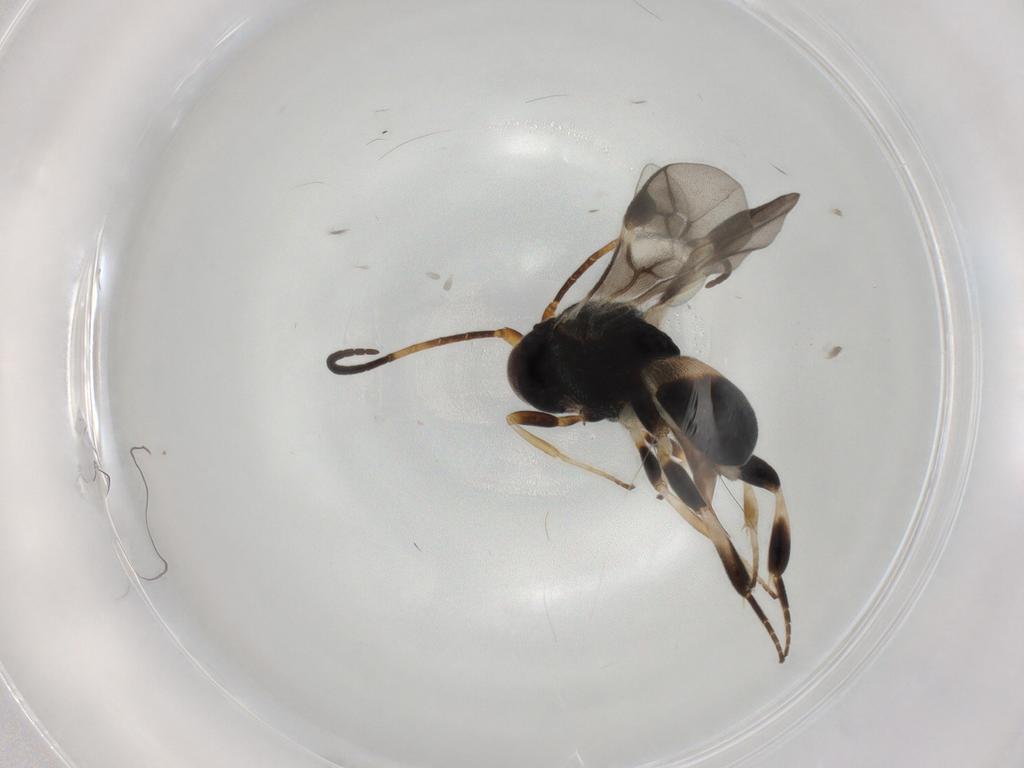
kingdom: Animalia
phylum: Arthropoda
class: Insecta
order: Hymenoptera
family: Braconidae
